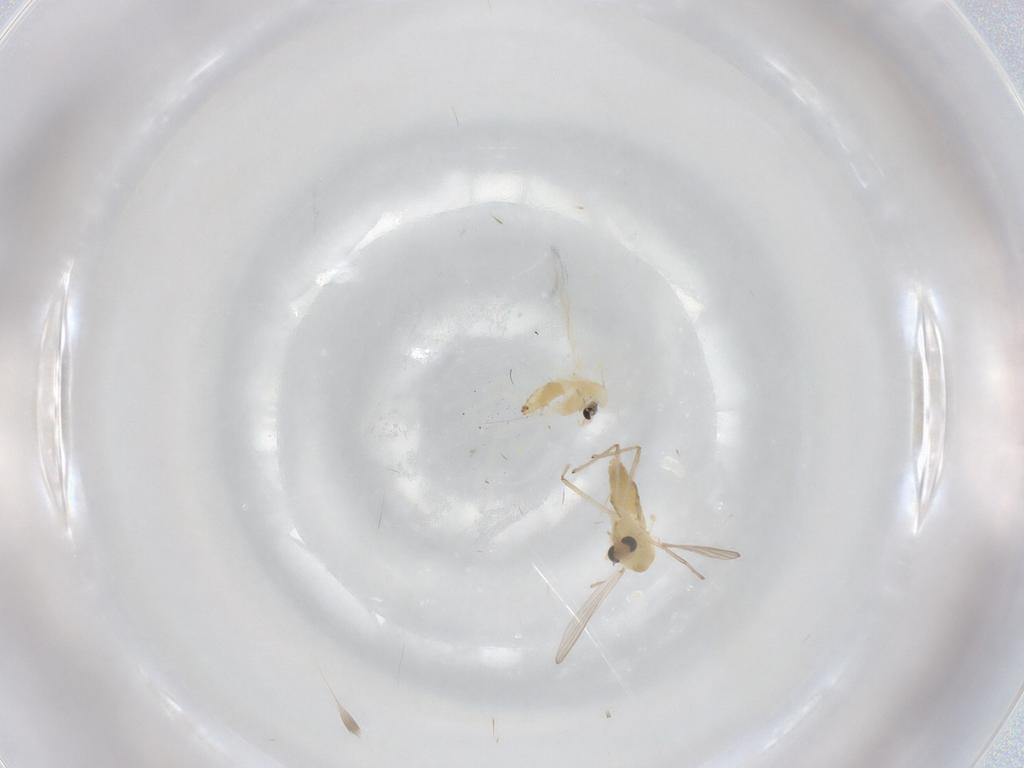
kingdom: Animalia
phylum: Arthropoda
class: Insecta
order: Diptera
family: Chironomidae
